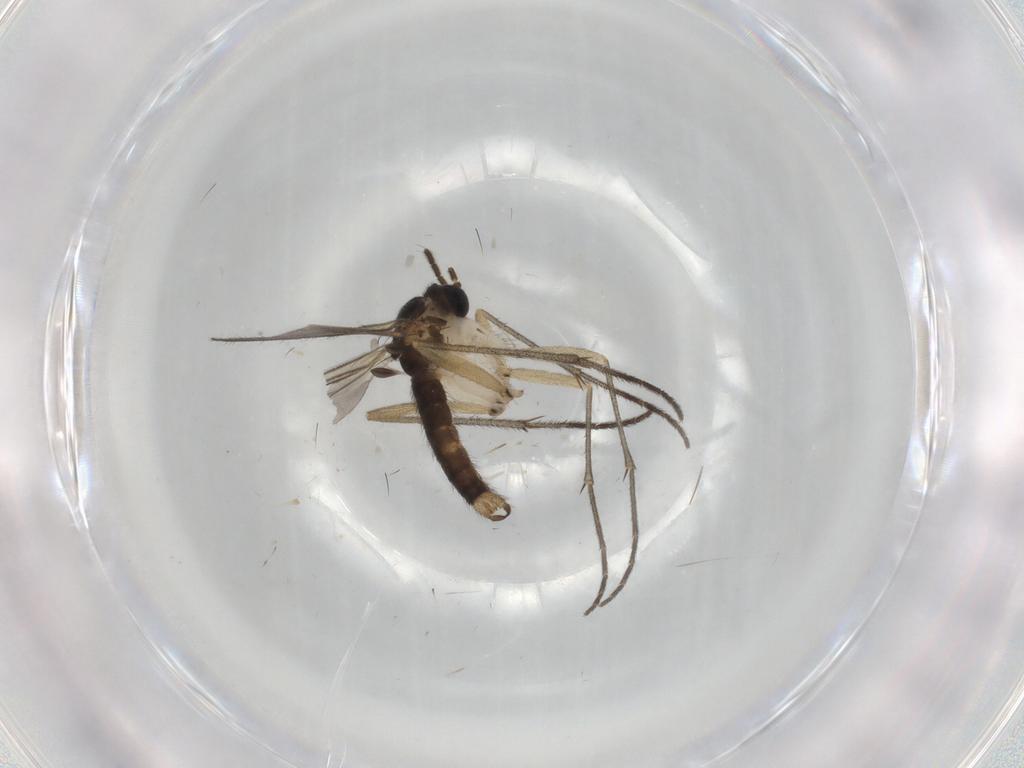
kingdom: Animalia
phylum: Arthropoda
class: Insecta
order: Diptera
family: Sciaridae
